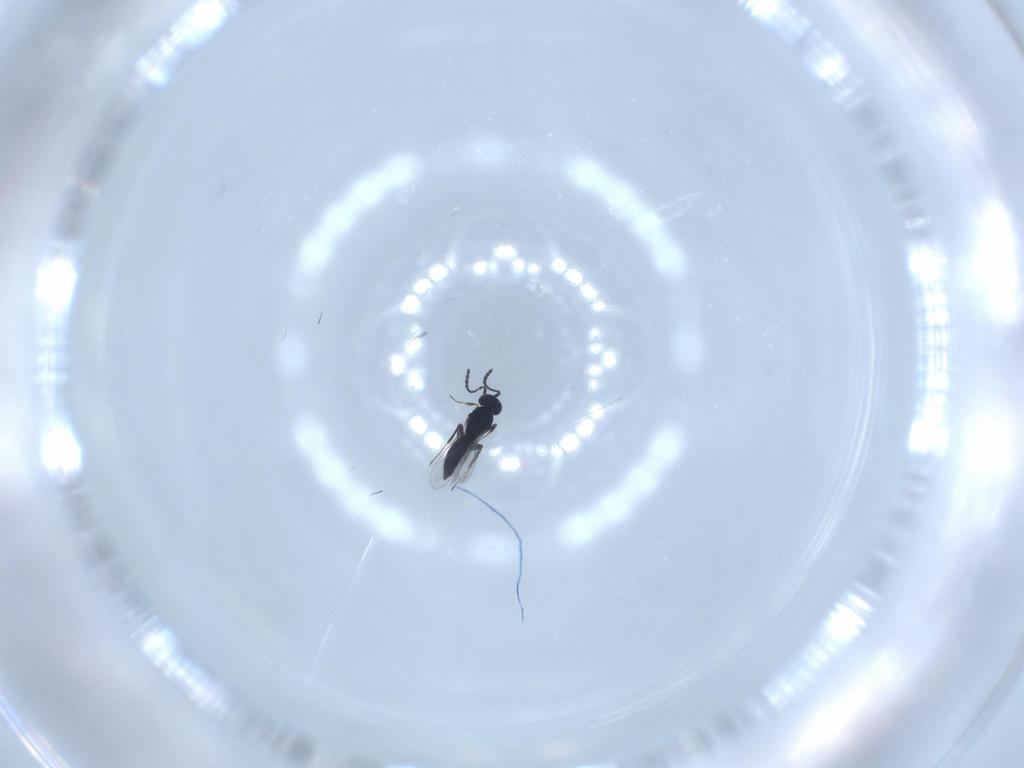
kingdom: Animalia
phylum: Arthropoda
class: Insecta
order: Hymenoptera
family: Scelionidae
